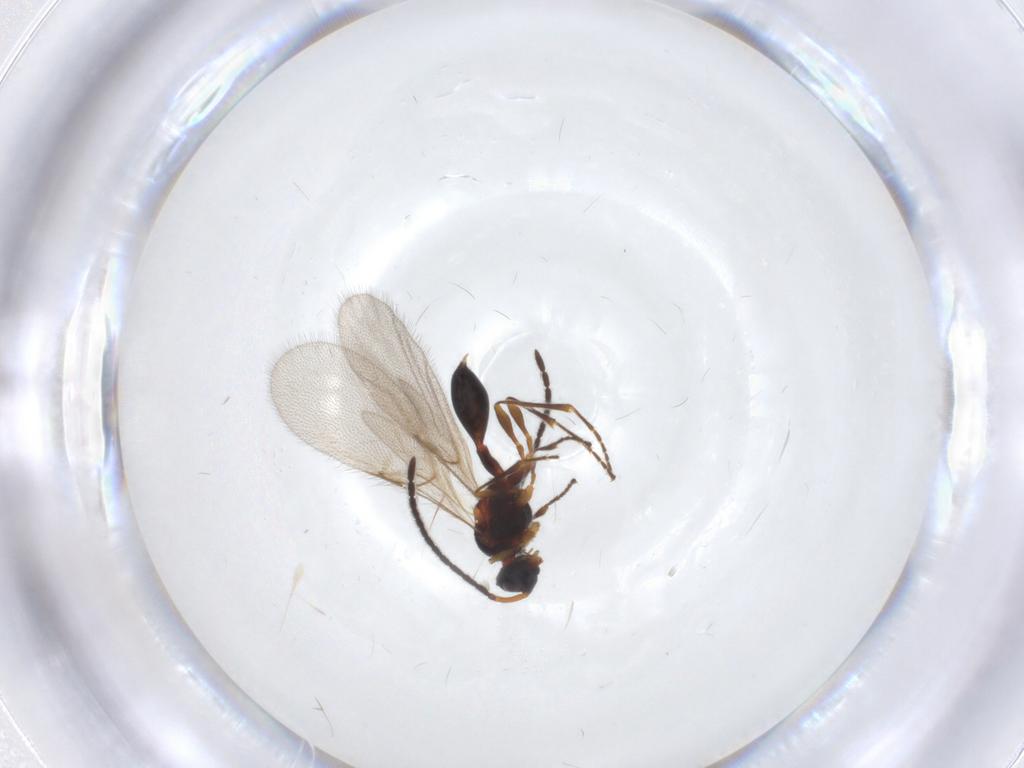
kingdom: Animalia
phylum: Arthropoda
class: Insecta
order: Hymenoptera
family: Diapriidae
